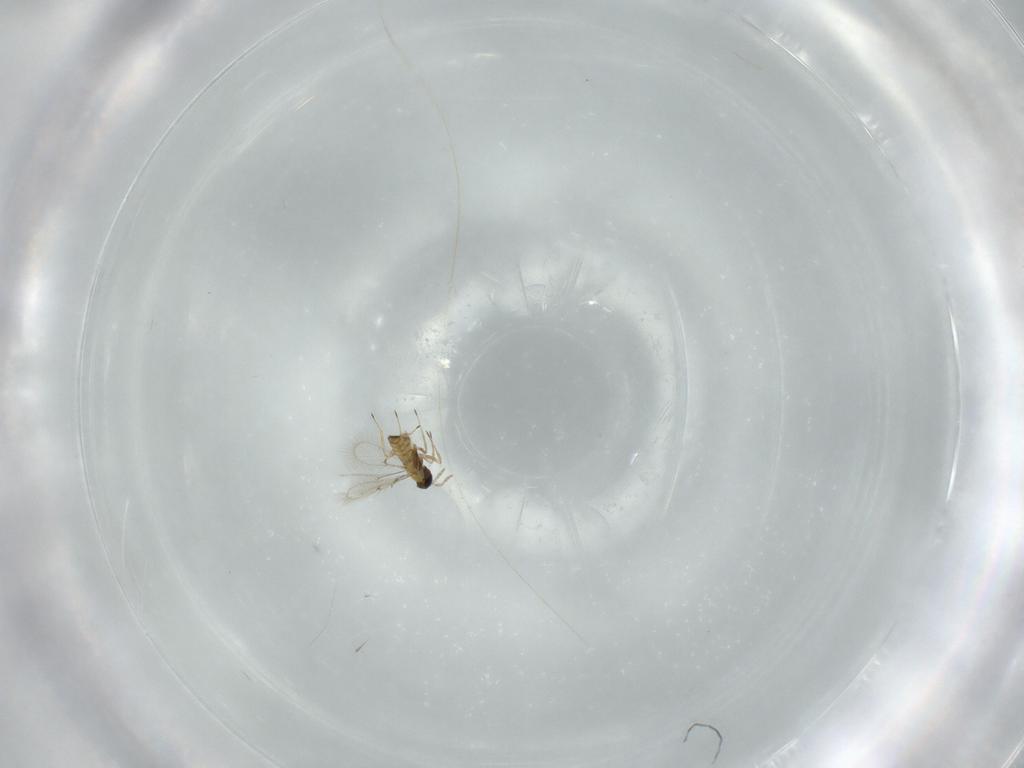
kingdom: Animalia
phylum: Arthropoda
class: Insecta
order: Hymenoptera
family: Trichogrammatidae
